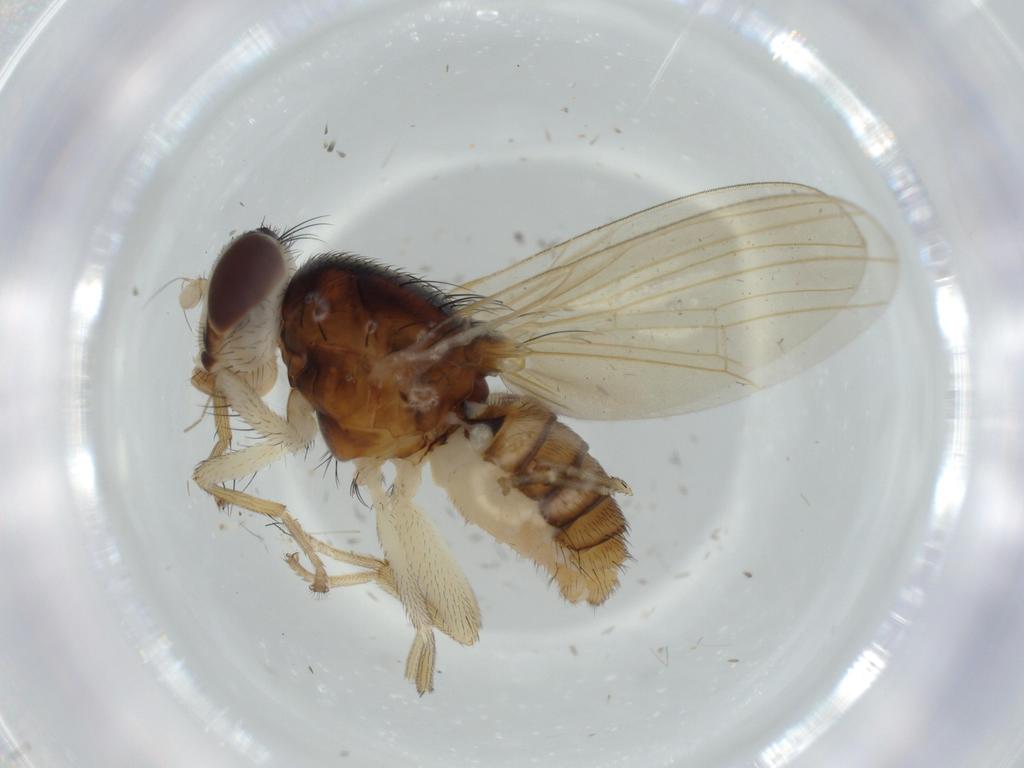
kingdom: Animalia
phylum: Arthropoda
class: Insecta
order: Diptera
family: Lauxaniidae
